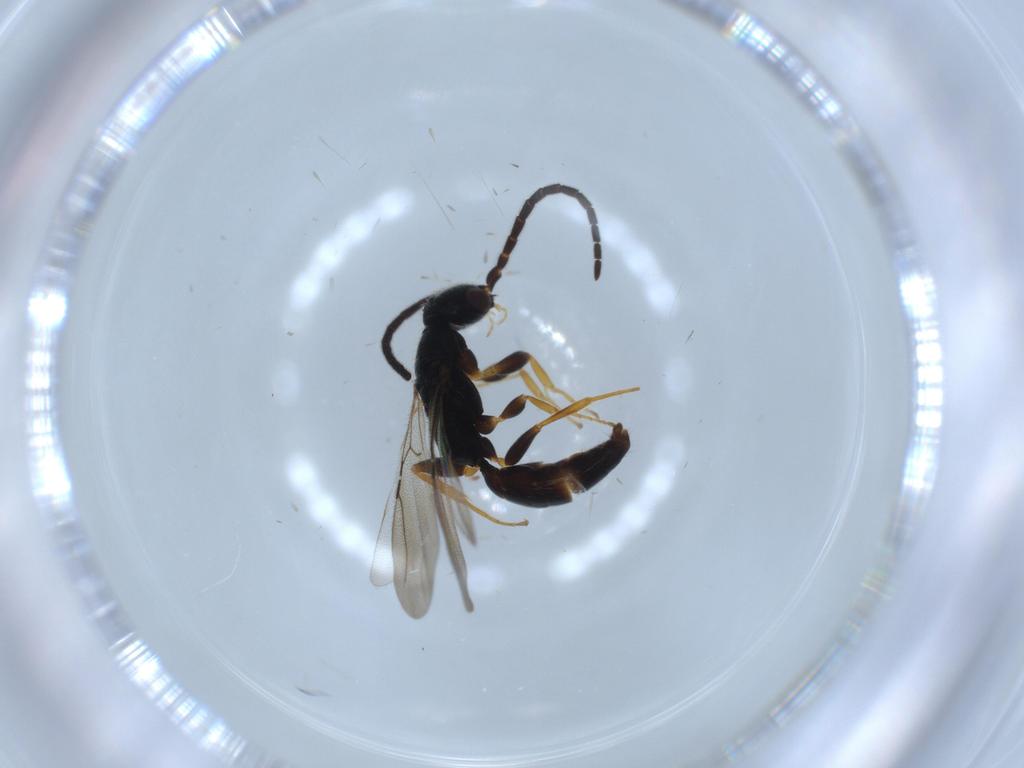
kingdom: Animalia
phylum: Arthropoda
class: Insecta
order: Hymenoptera
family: Bethylidae
